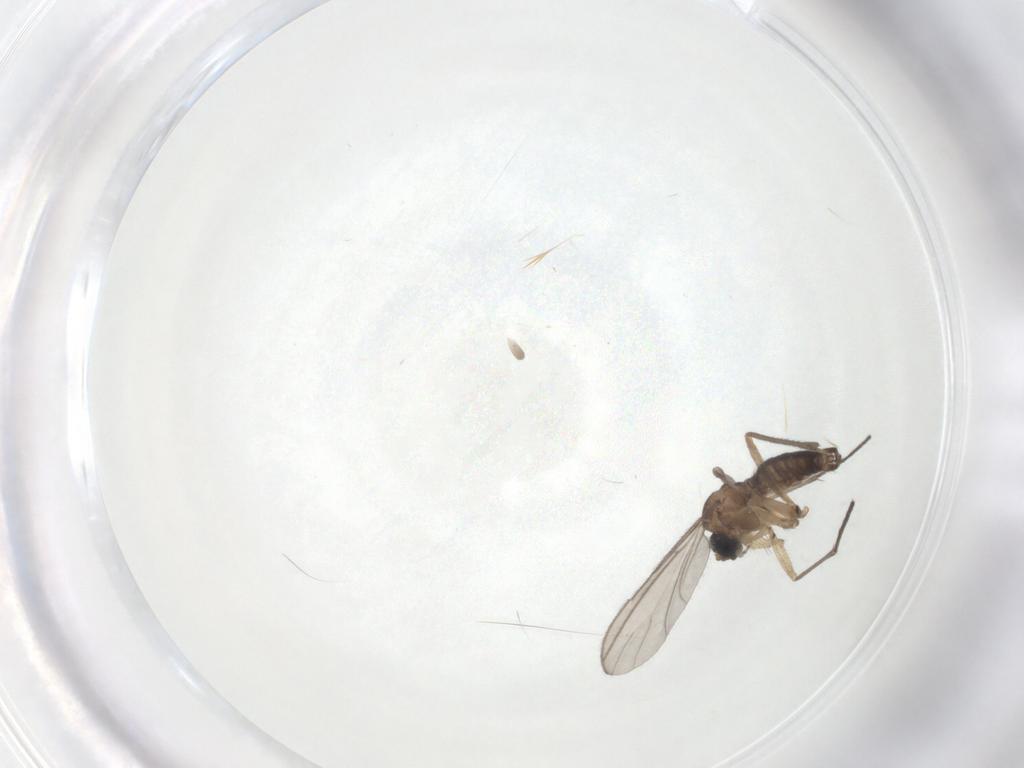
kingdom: Animalia
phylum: Arthropoda
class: Insecta
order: Diptera
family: Sciaridae
